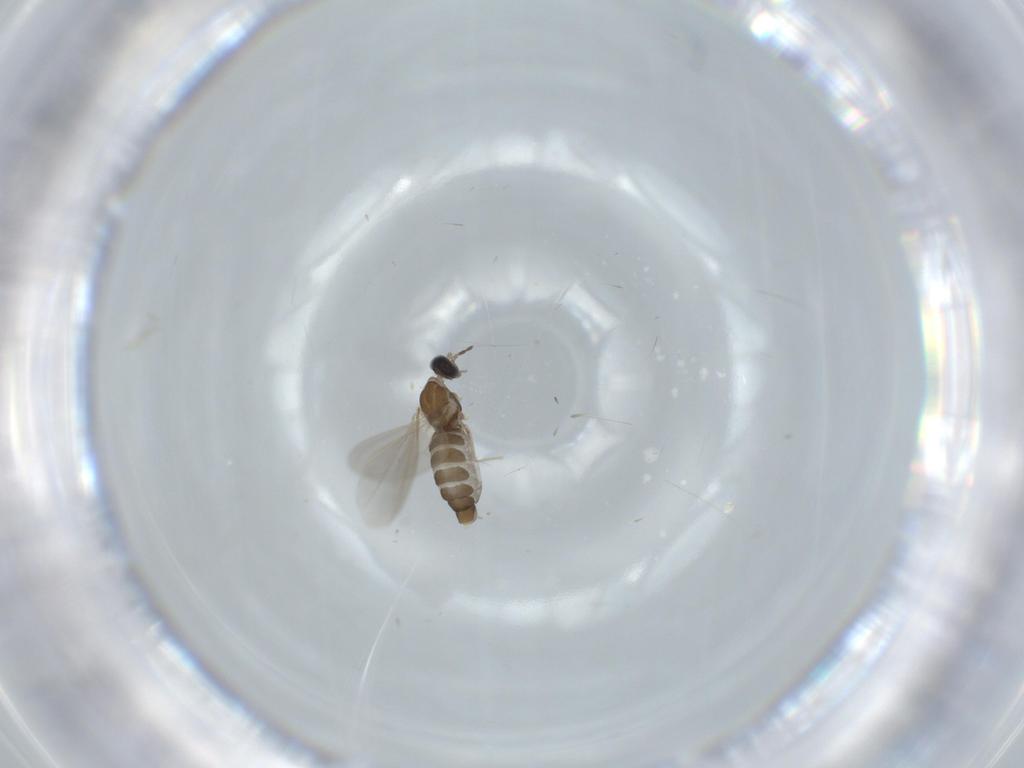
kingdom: Animalia
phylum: Arthropoda
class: Insecta
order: Diptera
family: Cecidomyiidae
